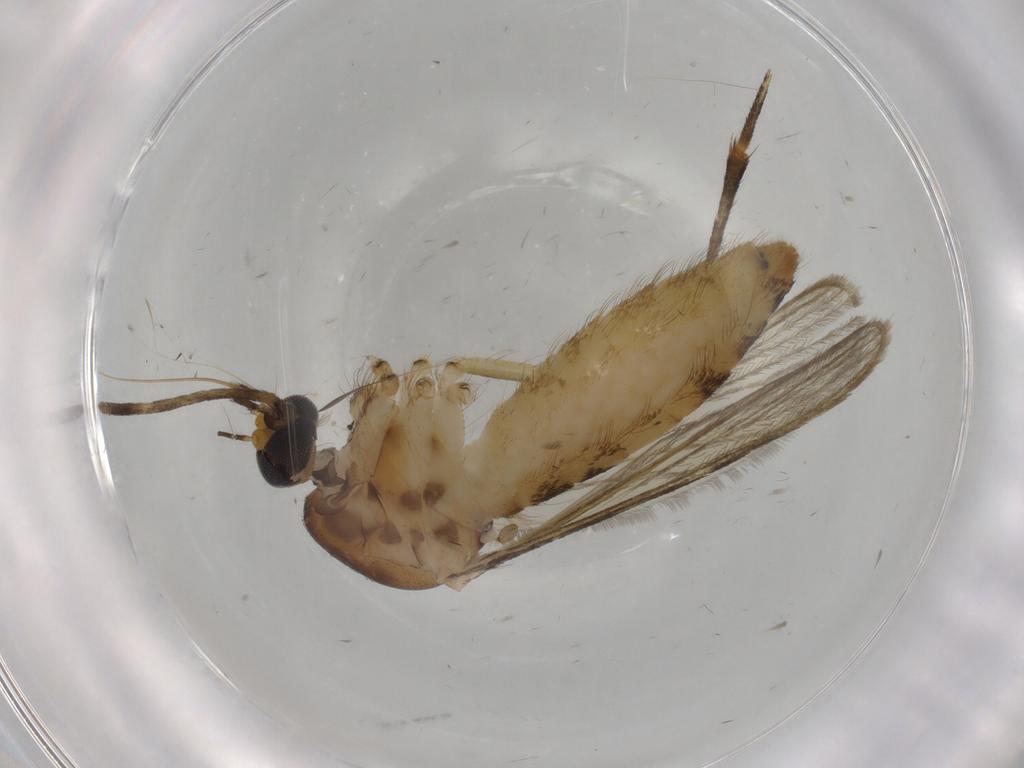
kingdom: Animalia
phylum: Arthropoda
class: Insecta
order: Diptera
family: Culicidae
